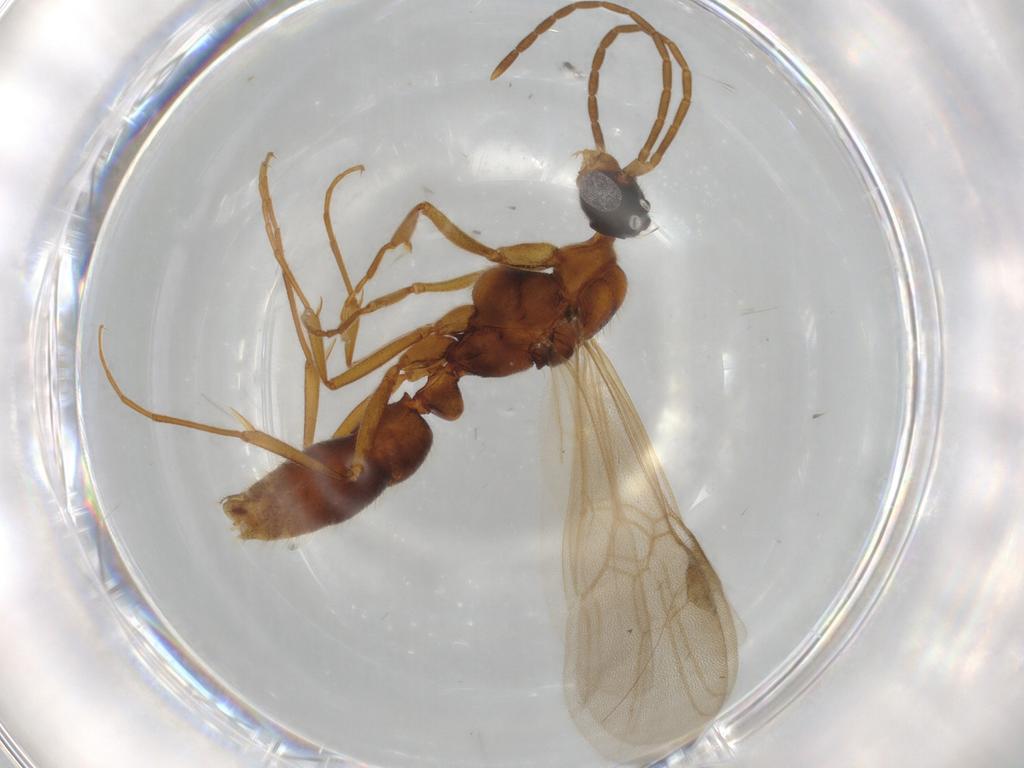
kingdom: Animalia
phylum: Arthropoda
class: Insecta
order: Hymenoptera
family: Formicidae
